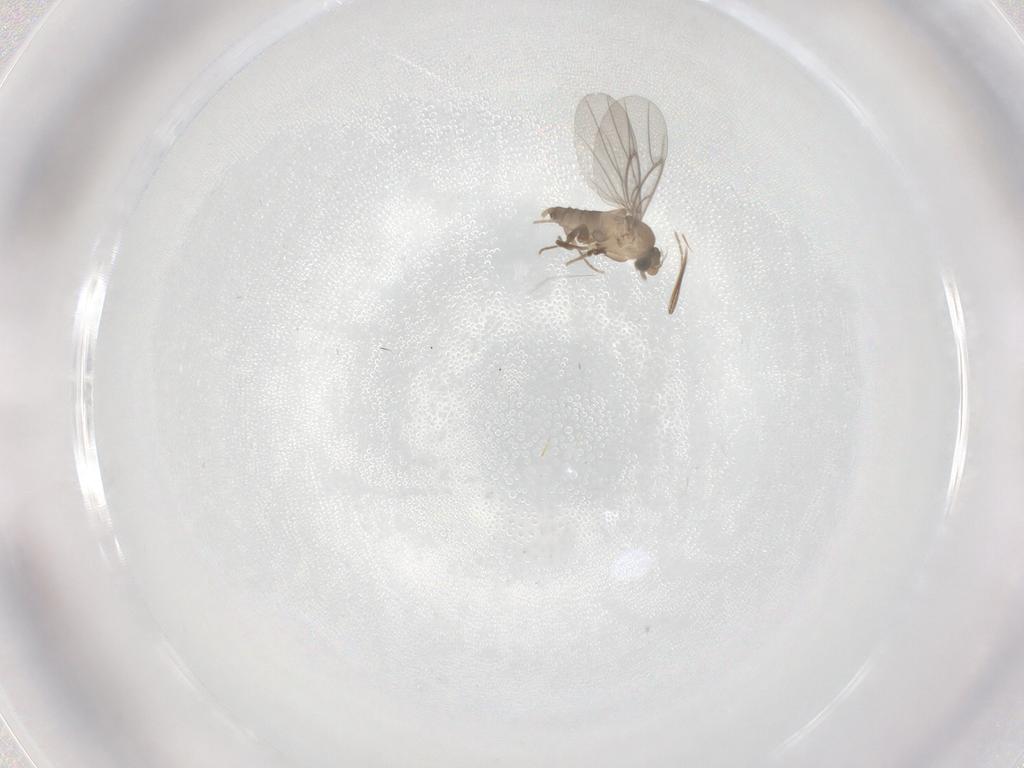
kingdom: Animalia
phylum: Arthropoda
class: Insecta
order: Diptera
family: Ceratopogonidae
